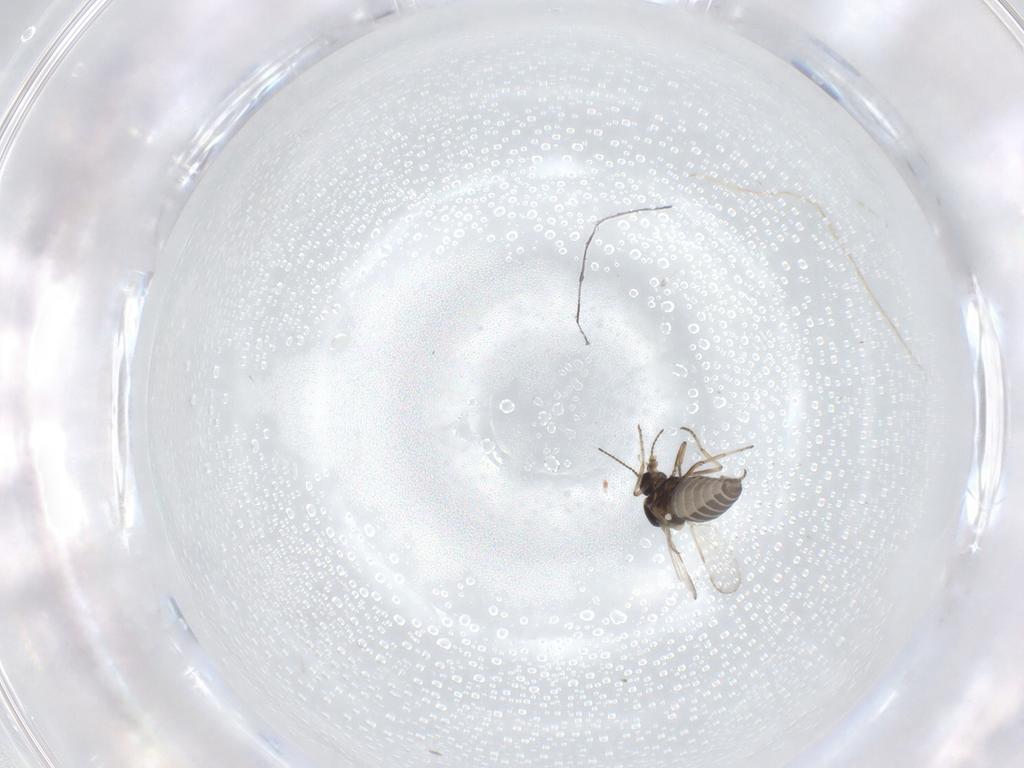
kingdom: Animalia
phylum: Arthropoda
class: Insecta
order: Diptera
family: Ceratopogonidae
